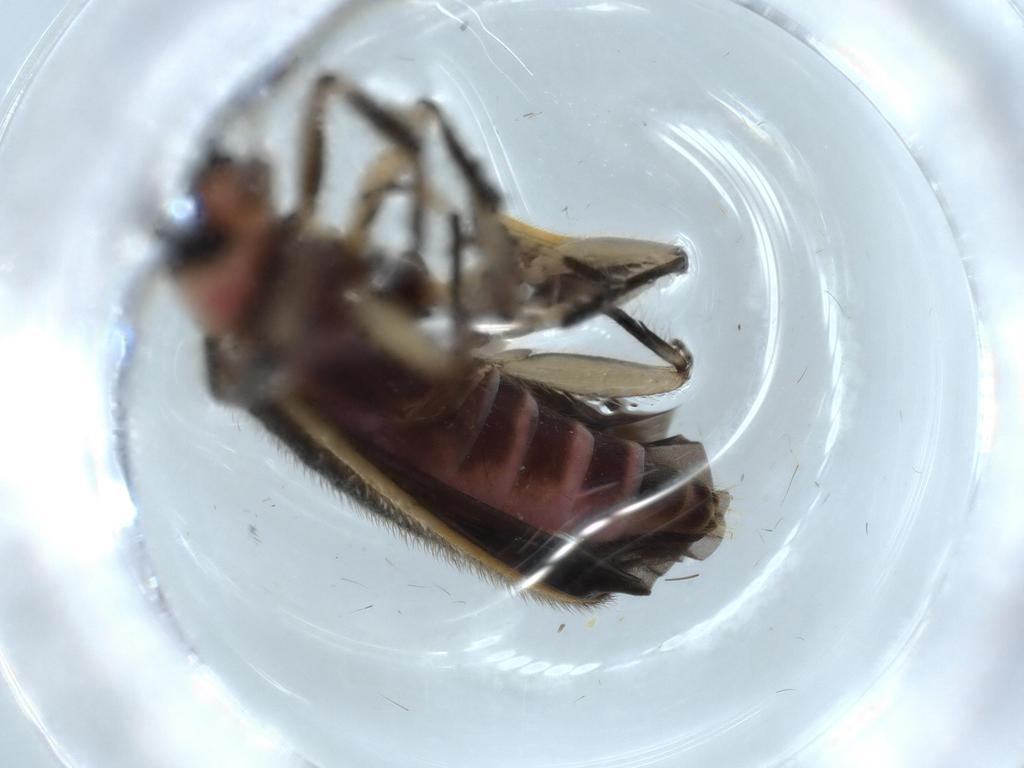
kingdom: Animalia
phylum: Arthropoda
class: Insecta
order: Coleoptera
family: Cleridae
